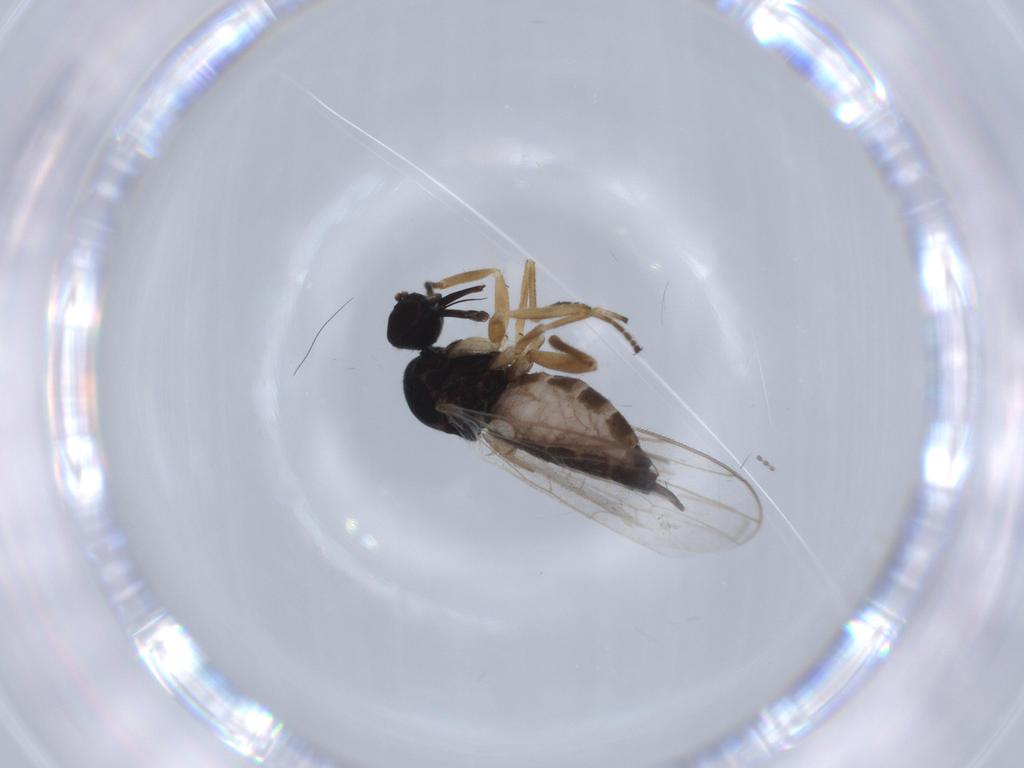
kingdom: Animalia
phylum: Arthropoda
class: Insecta
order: Diptera
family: Hybotidae
